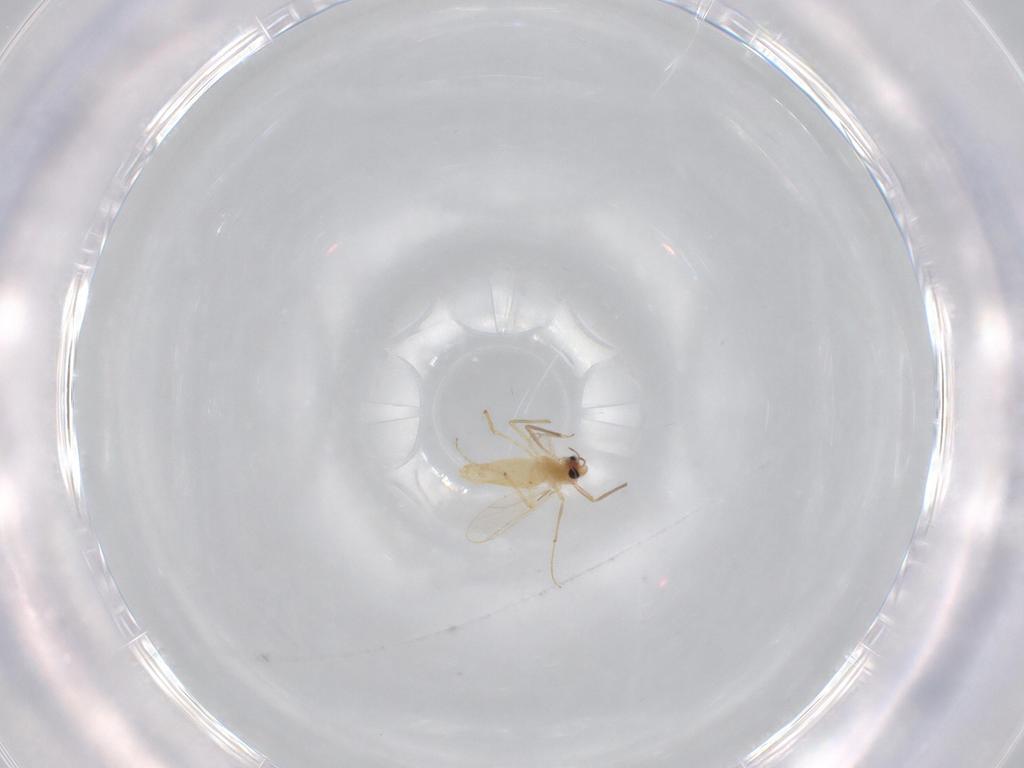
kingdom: Animalia
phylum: Arthropoda
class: Insecta
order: Diptera
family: Chironomidae
